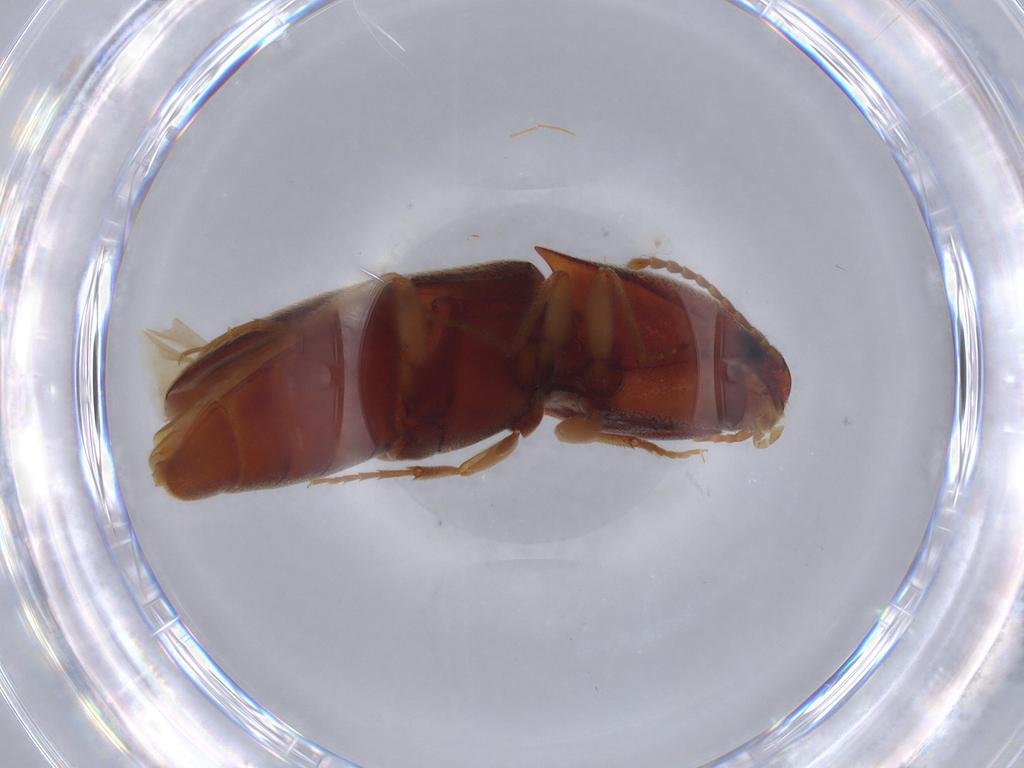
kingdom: Animalia
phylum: Arthropoda
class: Insecta
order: Coleoptera
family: Elateridae
